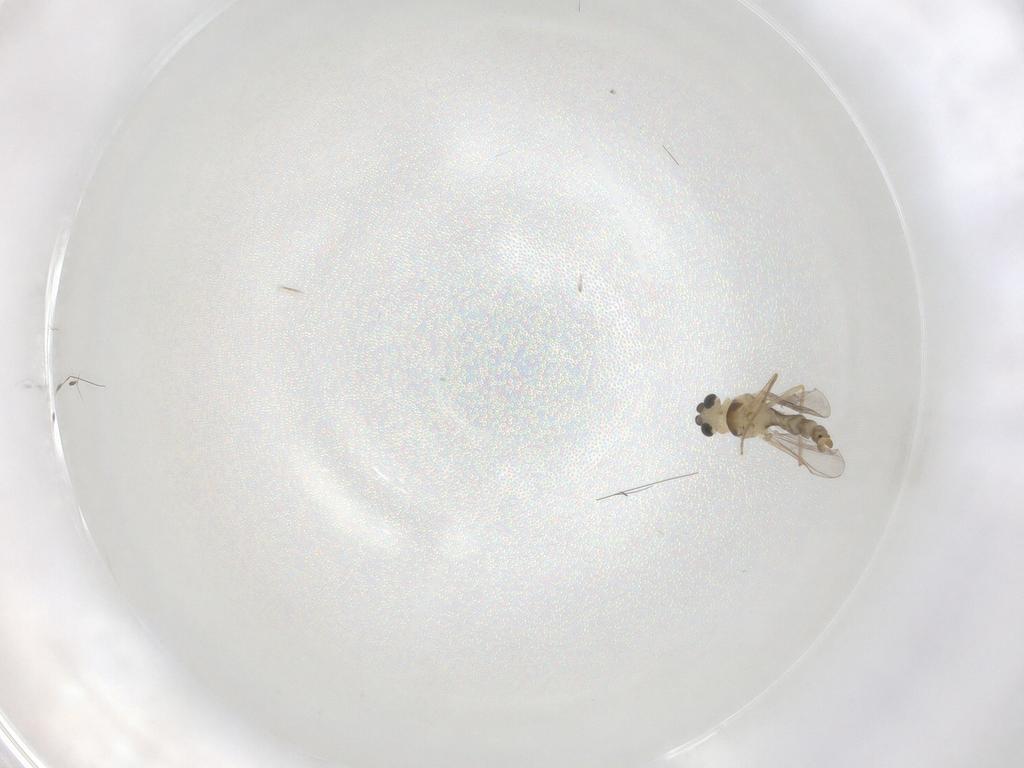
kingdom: Animalia
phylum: Arthropoda
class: Insecta
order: Diptera
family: Chironomidae
